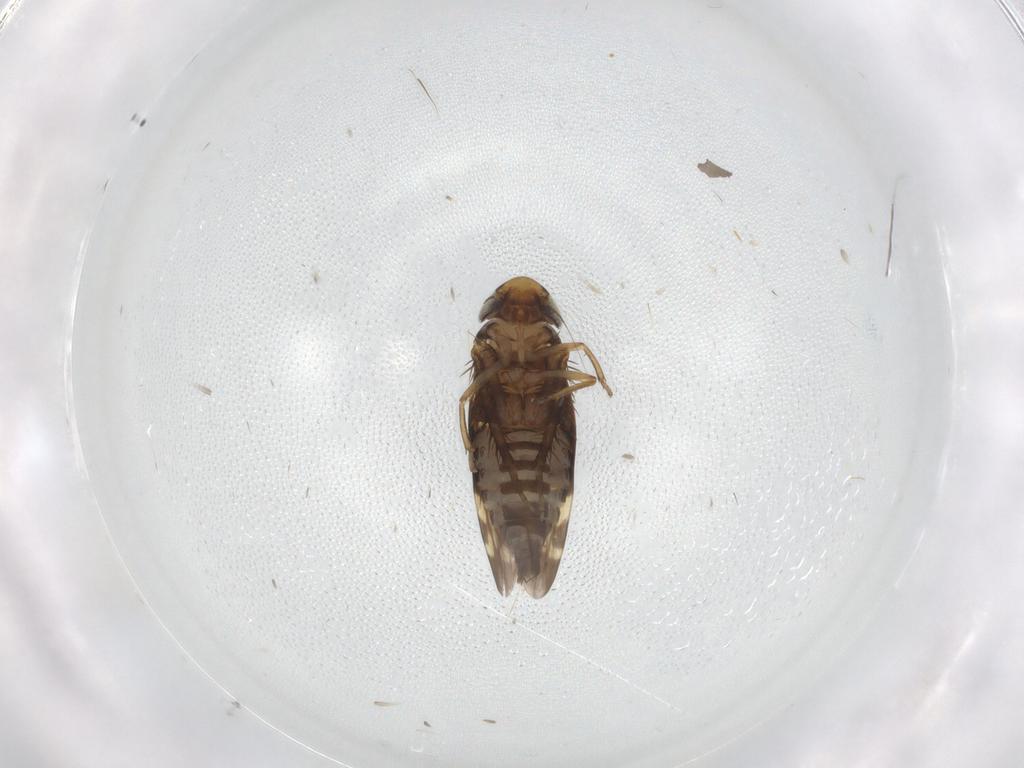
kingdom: Animalia
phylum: Arthropoda
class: Insecta
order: Hemiptera
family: Cicadellidae
